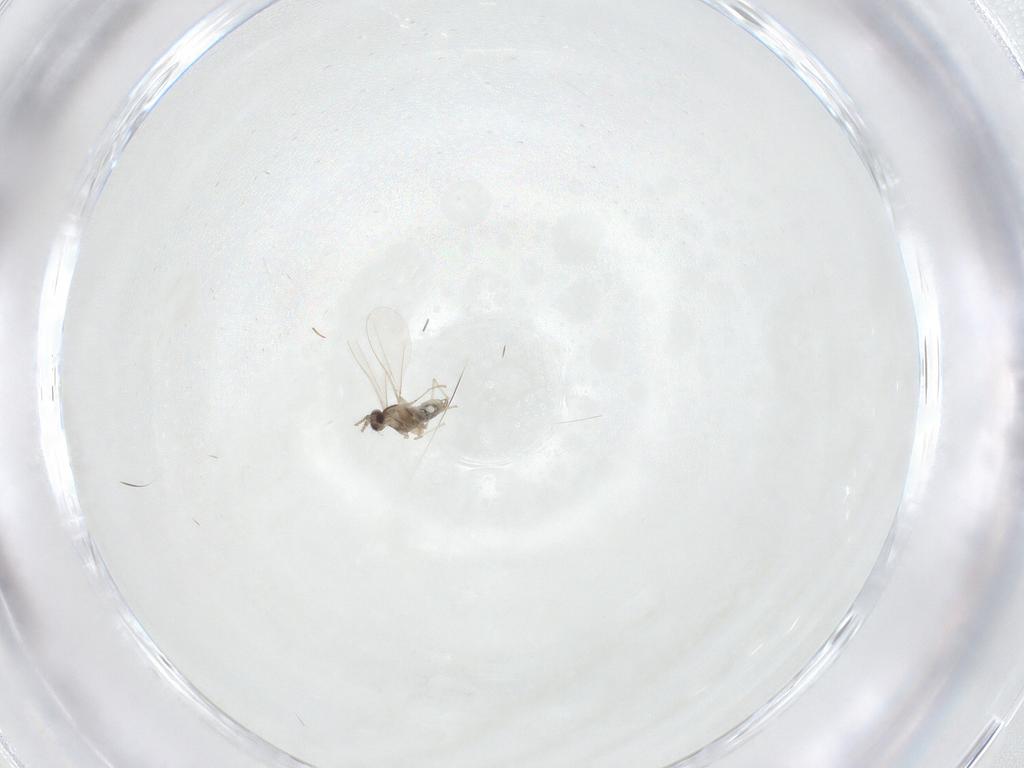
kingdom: Animalia
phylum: Arthropoda
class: Insecta
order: Diptera
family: Cecidomyiidae
